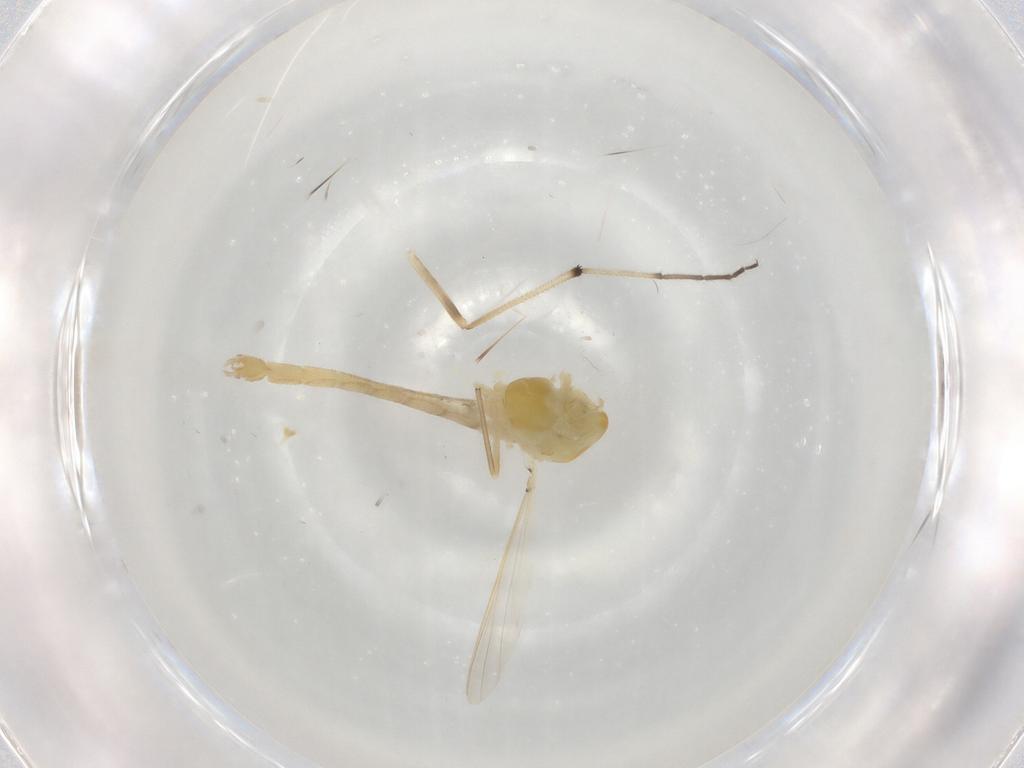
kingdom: Animalia
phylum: Arthropoda
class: Insecta
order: Diptera
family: Chironomidae
